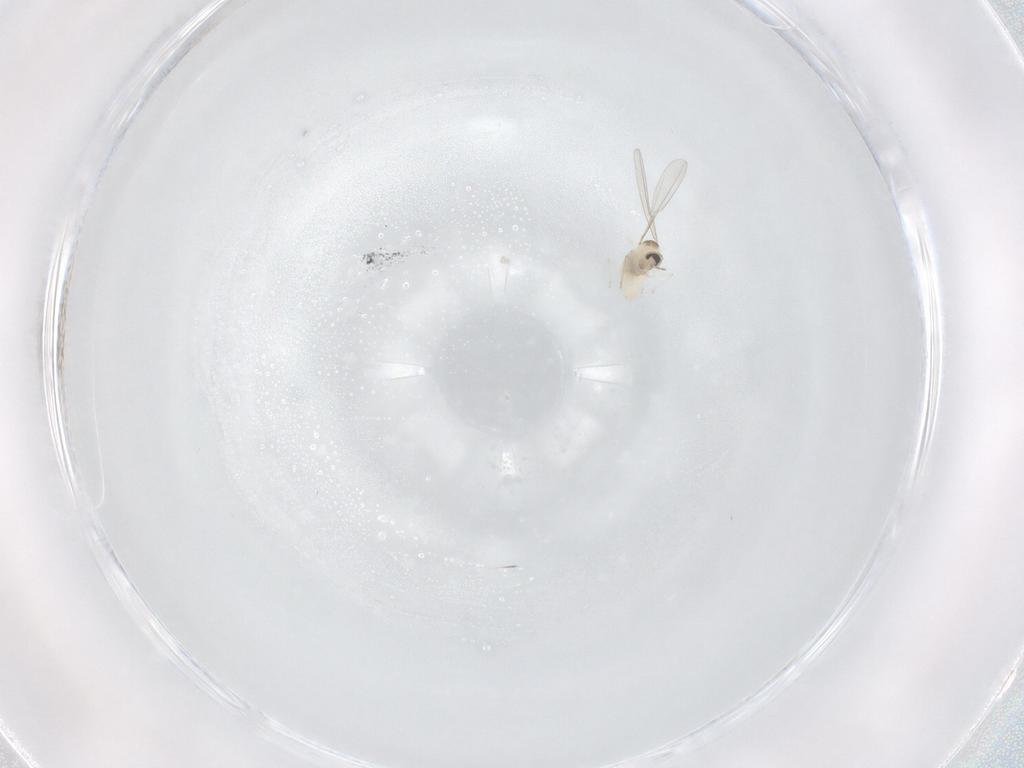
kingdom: Animalia
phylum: Arthropoda
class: Insecta
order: Diptera
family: Cecidomyiidae
